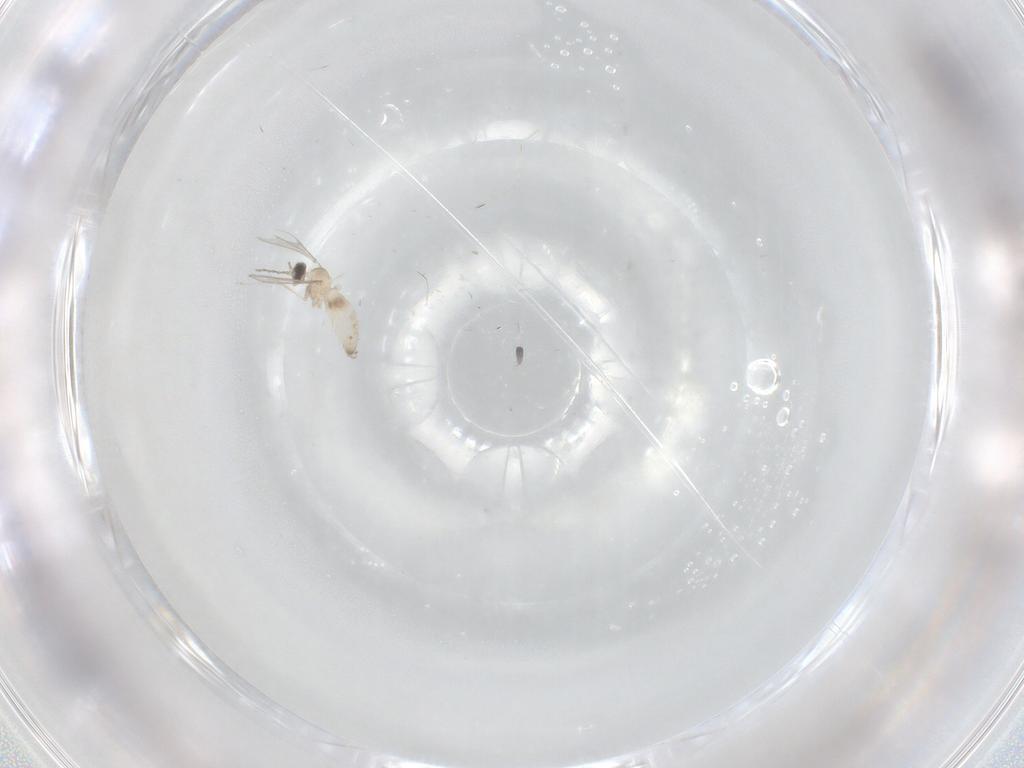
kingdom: Animalia
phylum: Arthropoda
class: Insecta
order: Diptera
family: Cecidomyiidae
